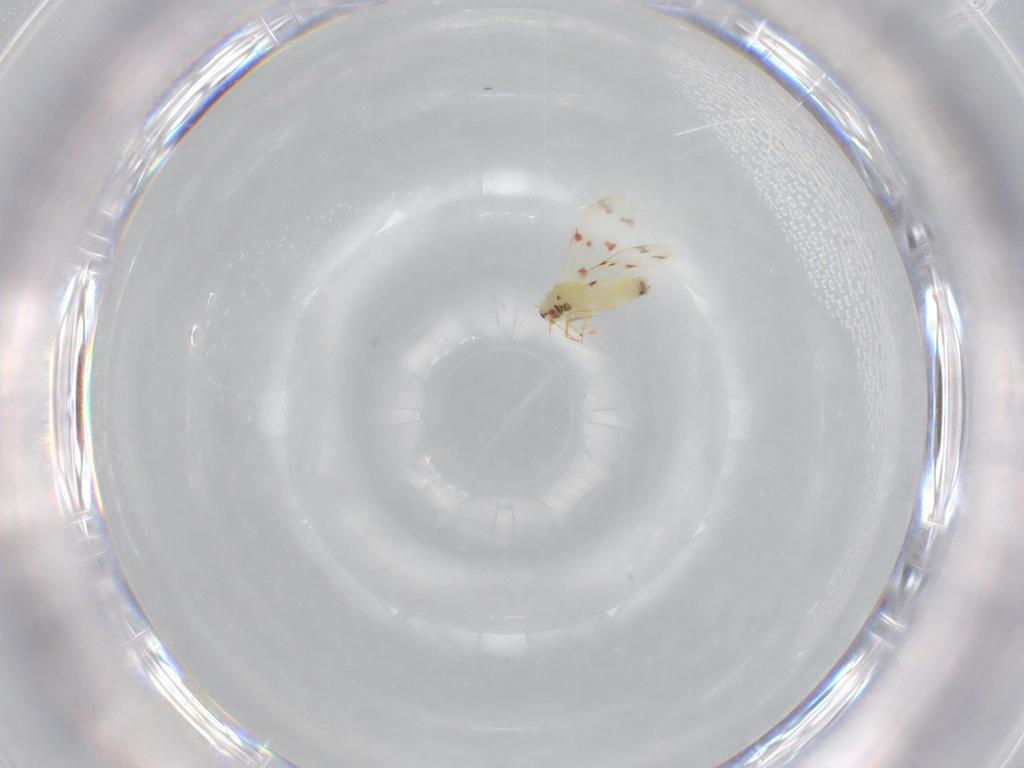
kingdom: Animalia
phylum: Arthropoda
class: Insecta
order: Hemiptera
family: Aleyrodidae
